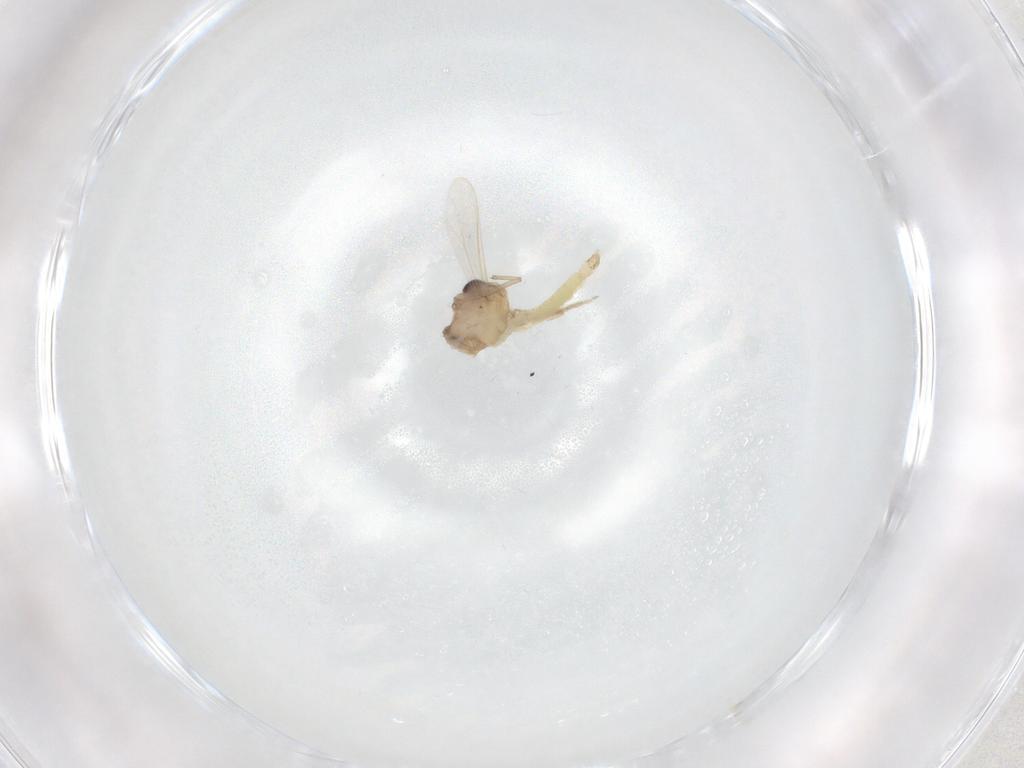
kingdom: Animalia
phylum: Arthropoda
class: Insecta
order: Diptera
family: Chironomidae
